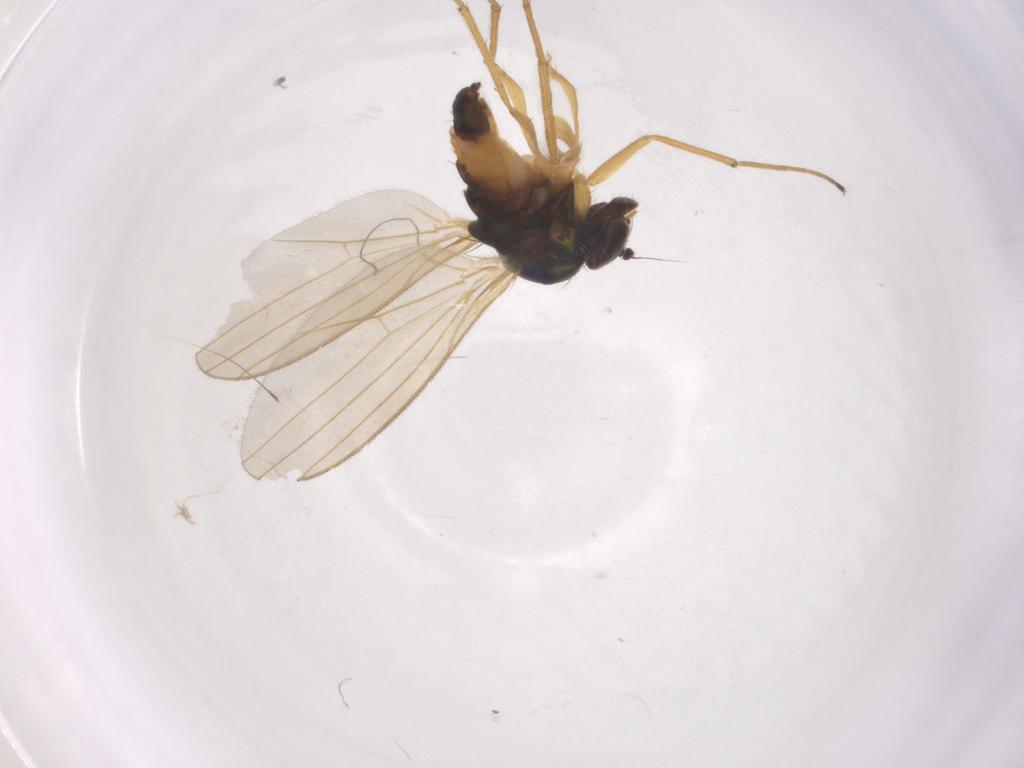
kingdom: Animalia
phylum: Arthropoda
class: Insecta
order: Diptera
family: Dolichopodidae
